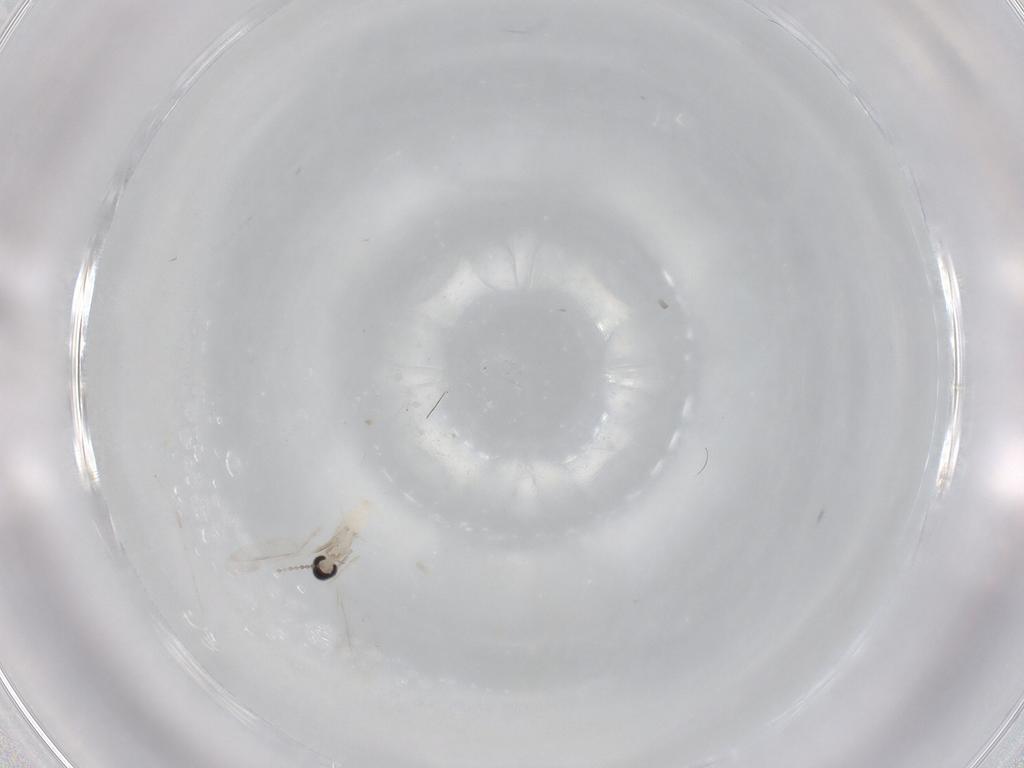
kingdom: Animalia
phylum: Arthropoda
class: Insecta
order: Diptera
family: Cecidomyiidae
